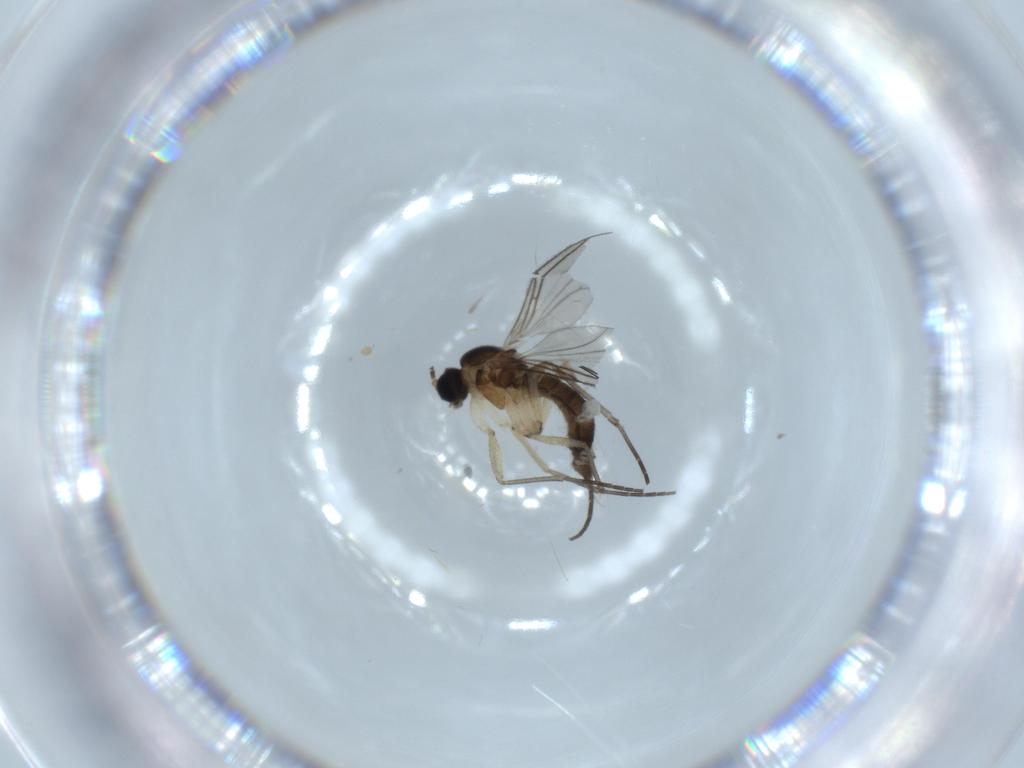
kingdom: Animalia
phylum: Arthropoda
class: Insecta
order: Diptera
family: Sciaridae
